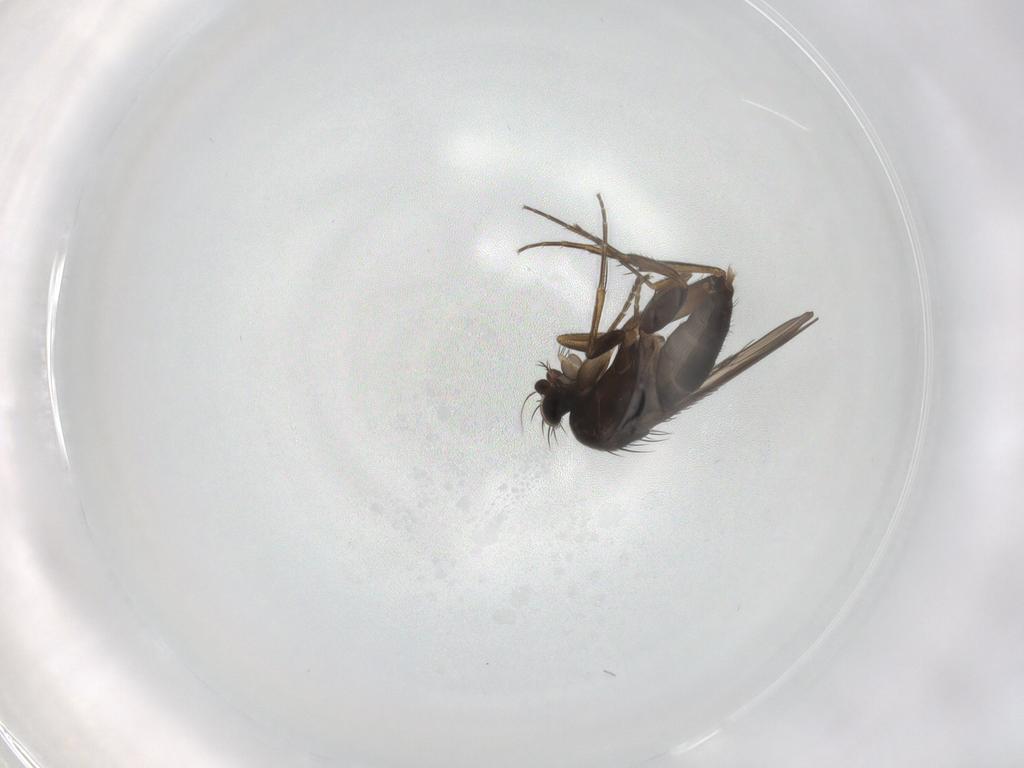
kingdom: Animalia
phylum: Arthropoda
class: Insecta
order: Diptera
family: Phoridae
